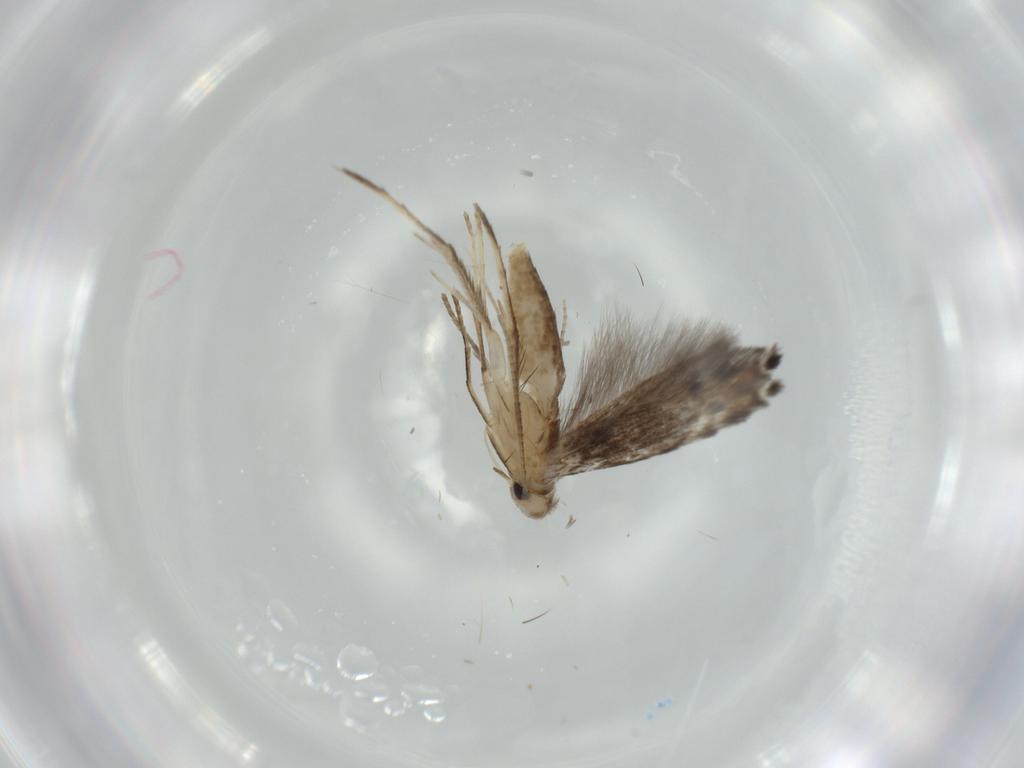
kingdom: Animalia
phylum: Arthropoda
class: Insecta
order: Lepidoptera
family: Gracillariidae
